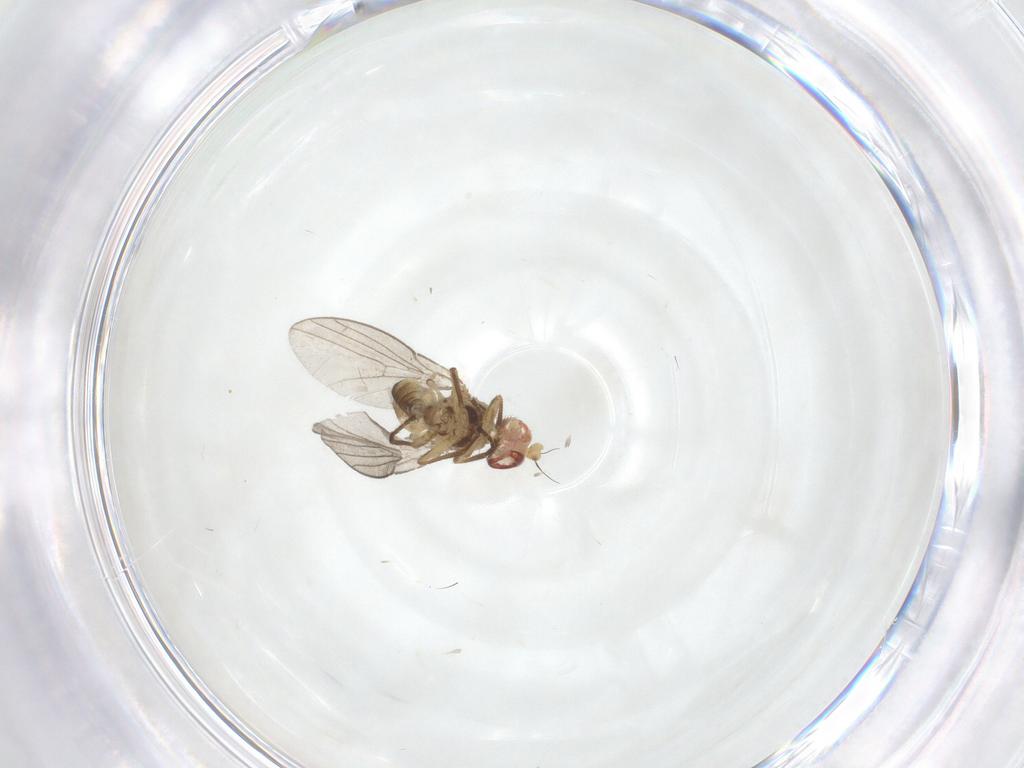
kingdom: Animalia
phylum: Arthropoda
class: Insecta
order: Diptera
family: Agromyzidae
